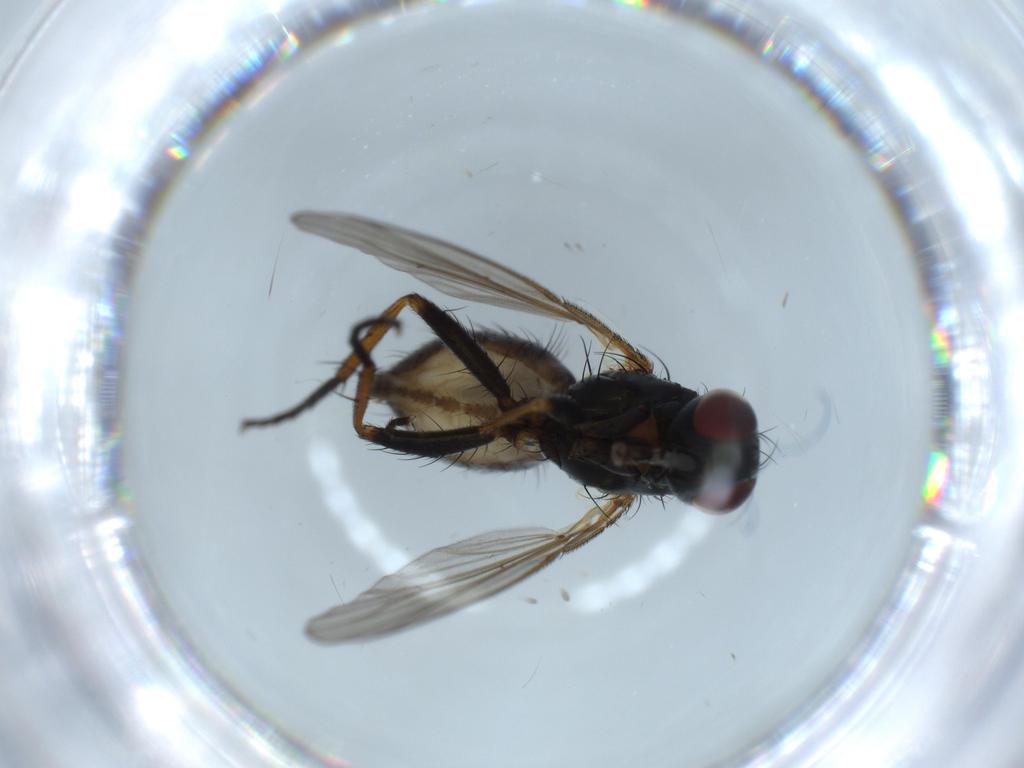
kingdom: Animalia
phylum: Arthropoda
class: Insecta
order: Diptera
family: Muscidae
